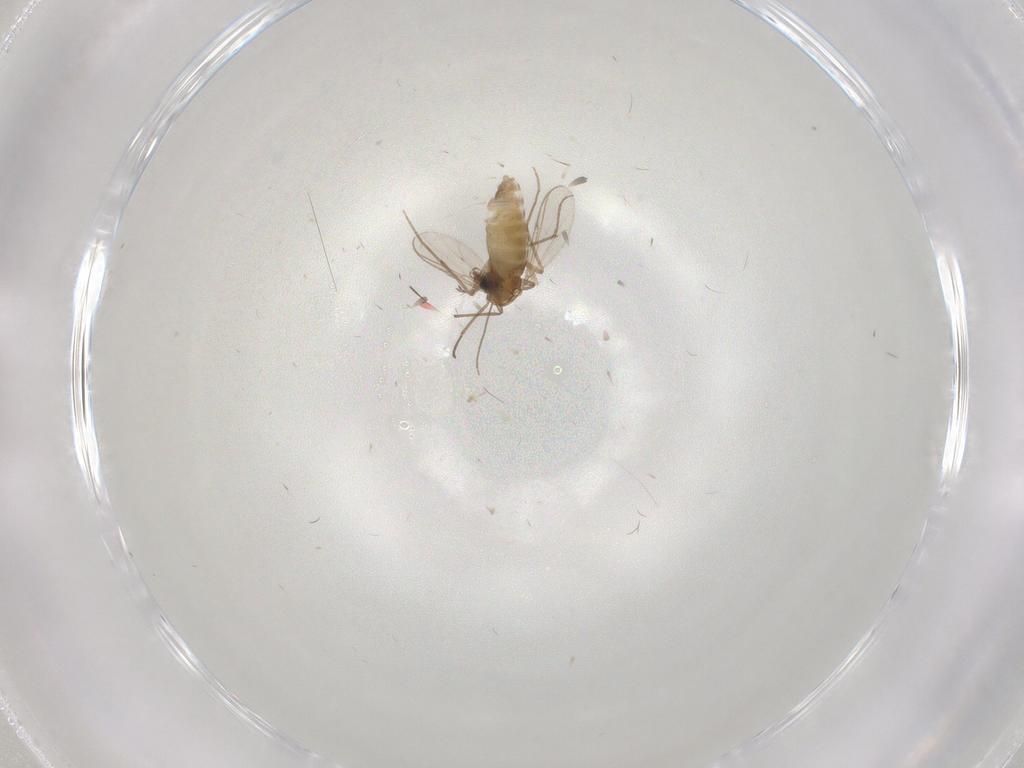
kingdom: Animalia
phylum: Arthropoda
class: Insecta
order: Diptera
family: Chironomidae
